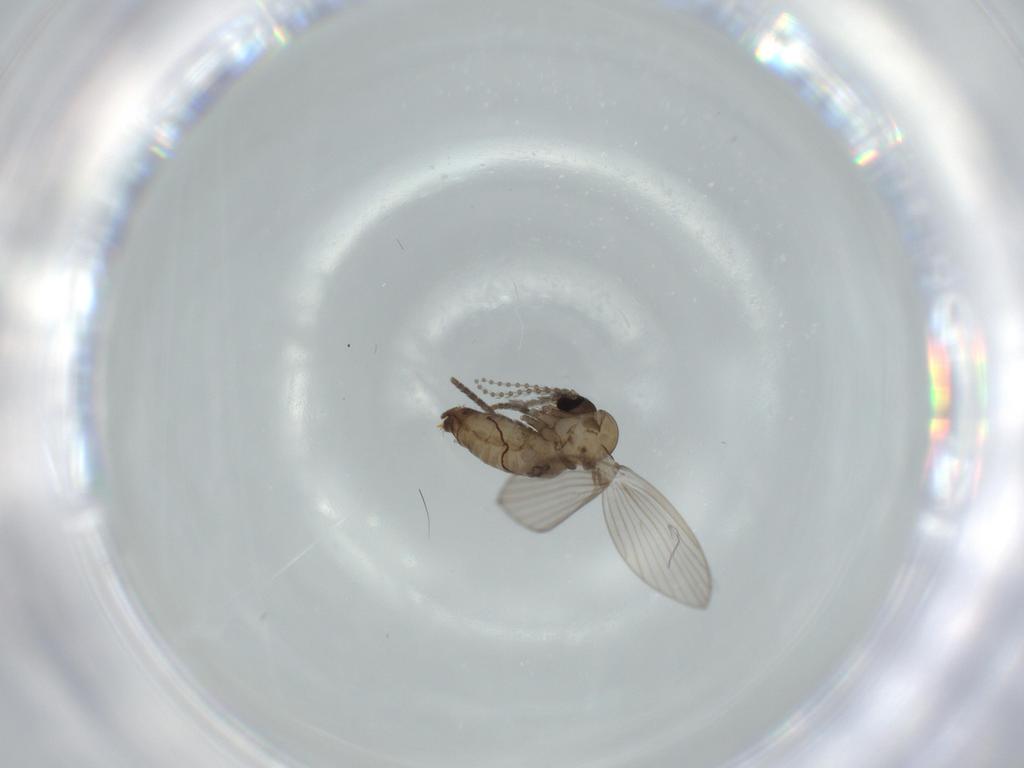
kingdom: Animalia
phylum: Arthropoda
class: Insecta
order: Diptera
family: Psychodidae
